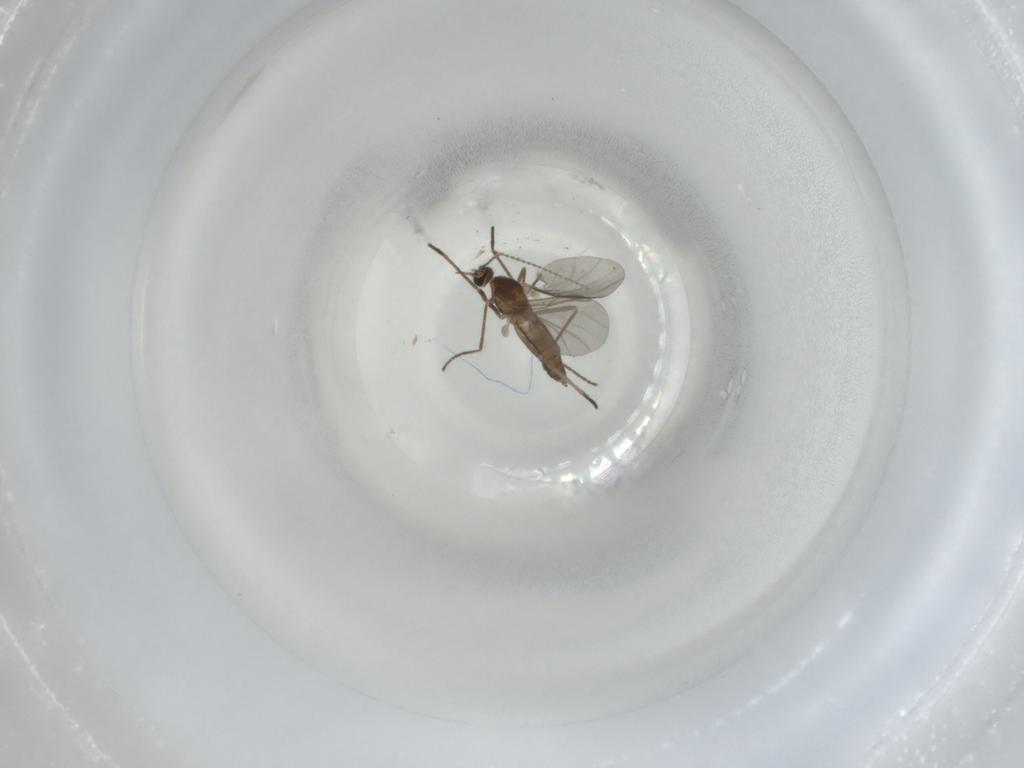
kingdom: Animalia
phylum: Arthropoda
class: Insecta
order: Diptera
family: Cecidomyiidae
